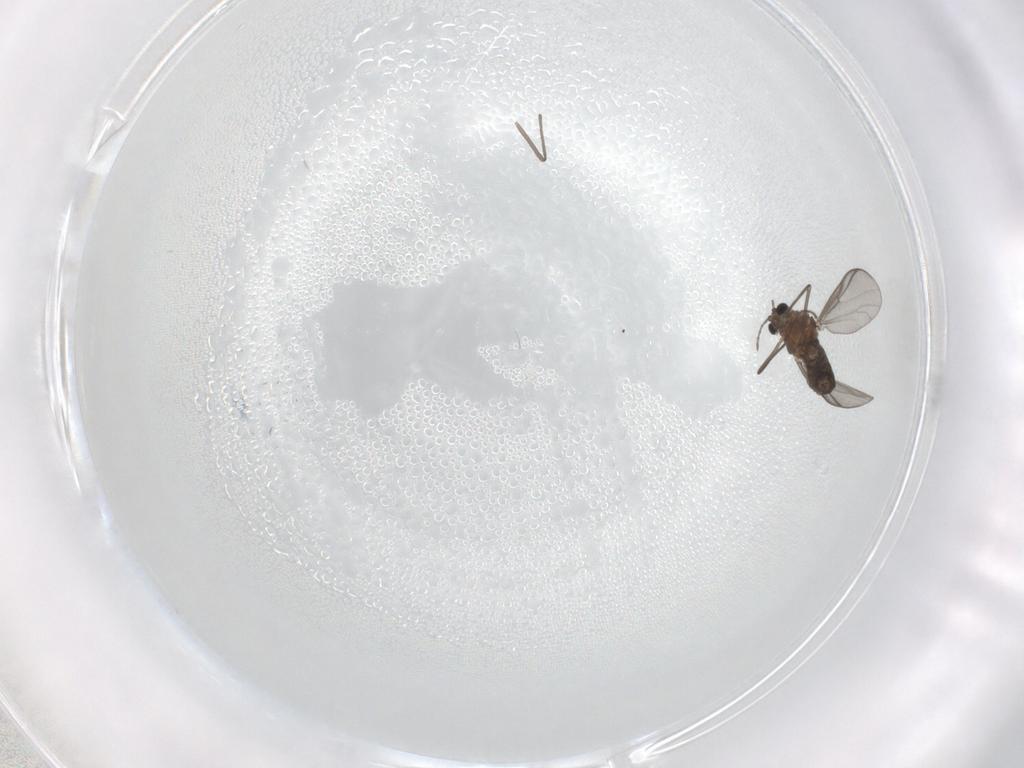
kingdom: Animalia
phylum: Arthropoda
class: Insecta
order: Diptera
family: Chironomidae
